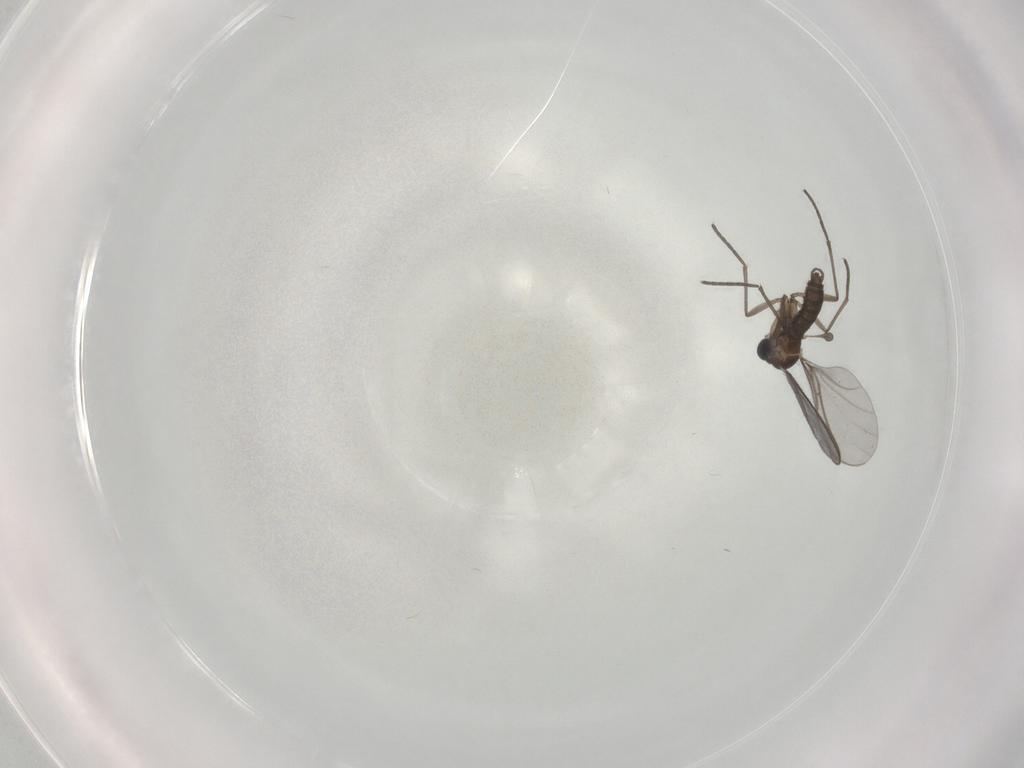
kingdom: Animalia
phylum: Arthropoda
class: Insecta
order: Diptera
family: Sciaridae
